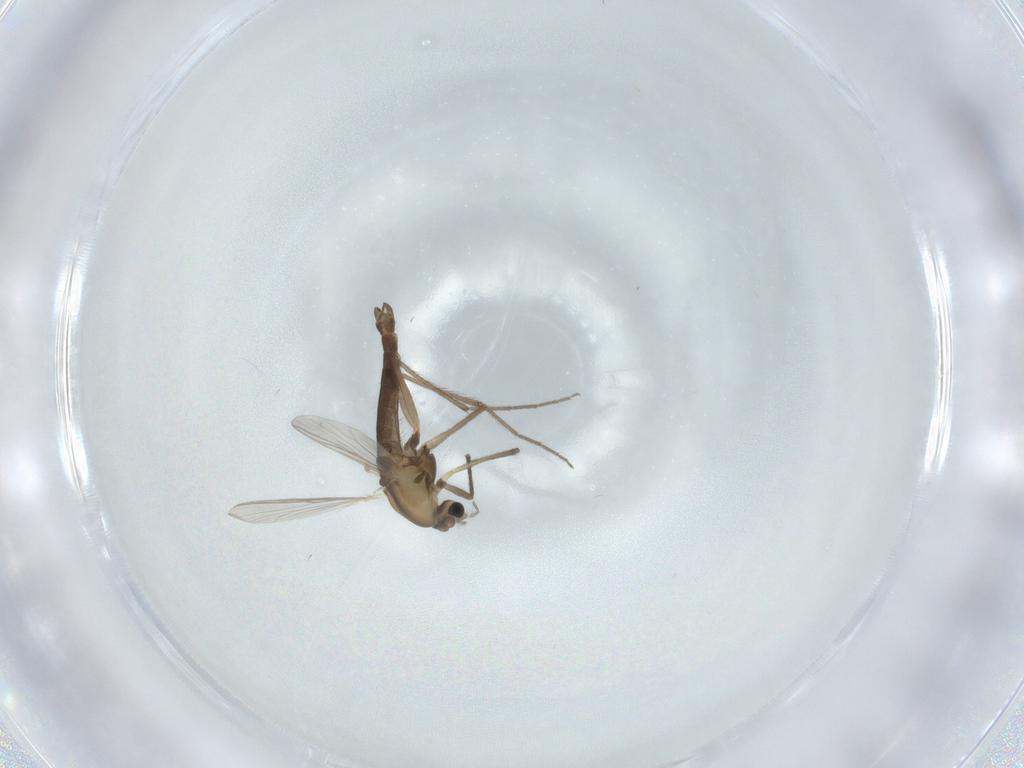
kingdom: Animalia
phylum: Arthropoda
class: Insecta
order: Diptera
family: Chironomidae
